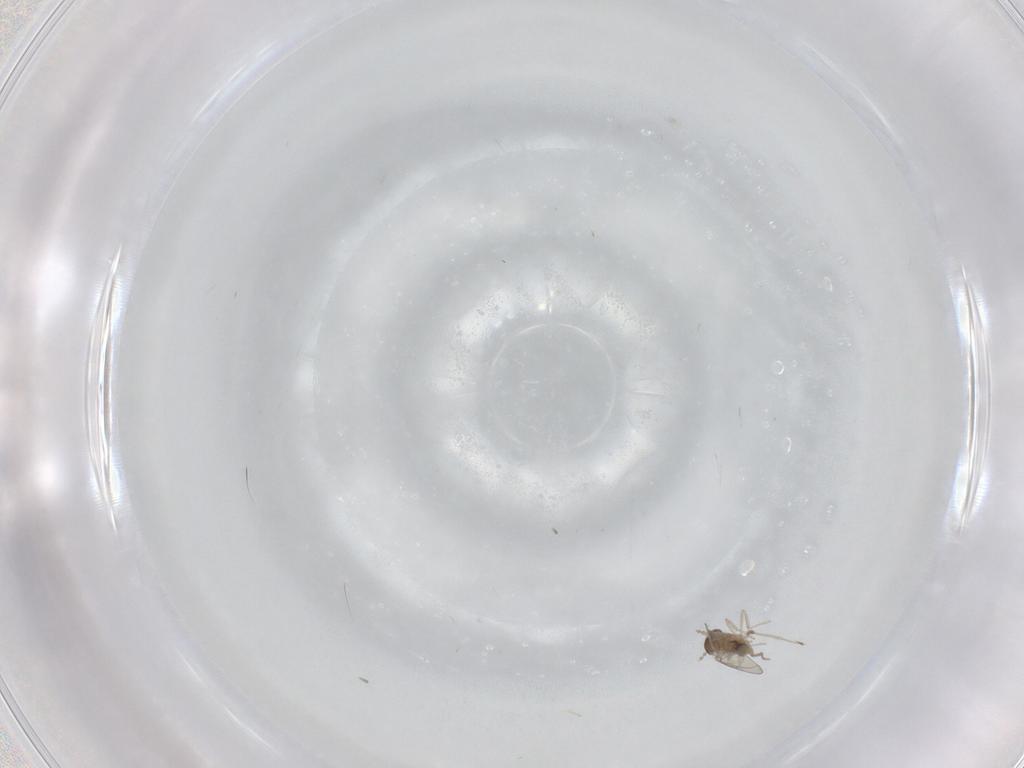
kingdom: Animalia
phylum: Arthropoda
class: Insecta
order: Diptera
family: Cecidomyiidae
